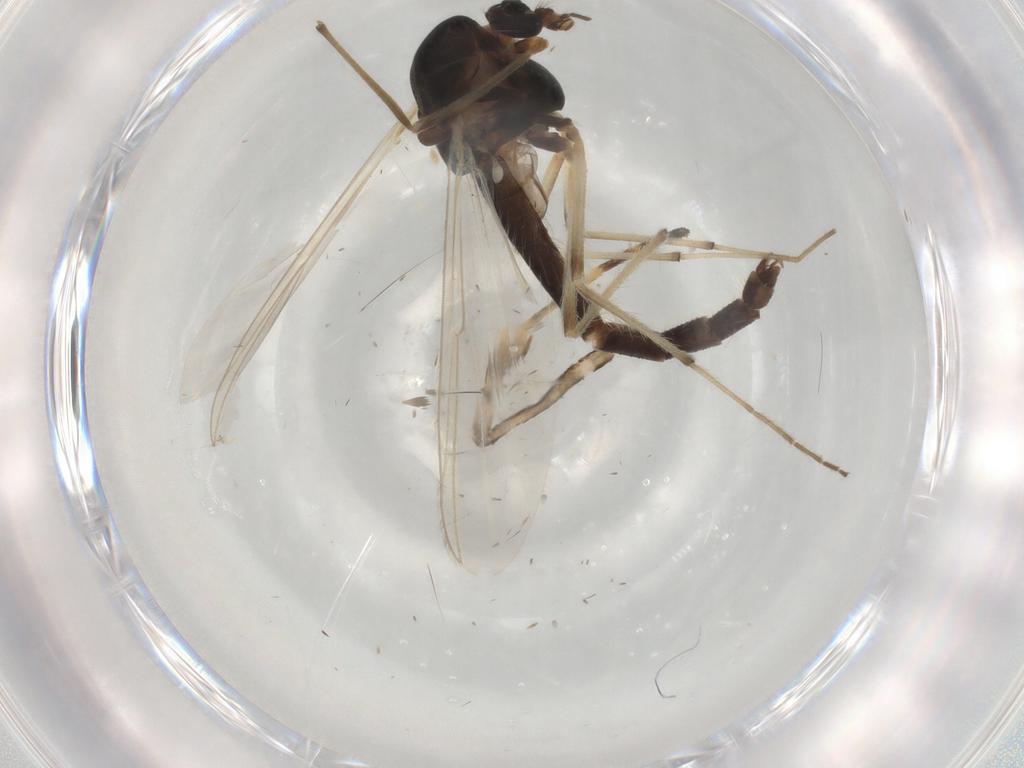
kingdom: Animalia
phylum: Arthropoda
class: Insecta
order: Diptera
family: Chironomidae
